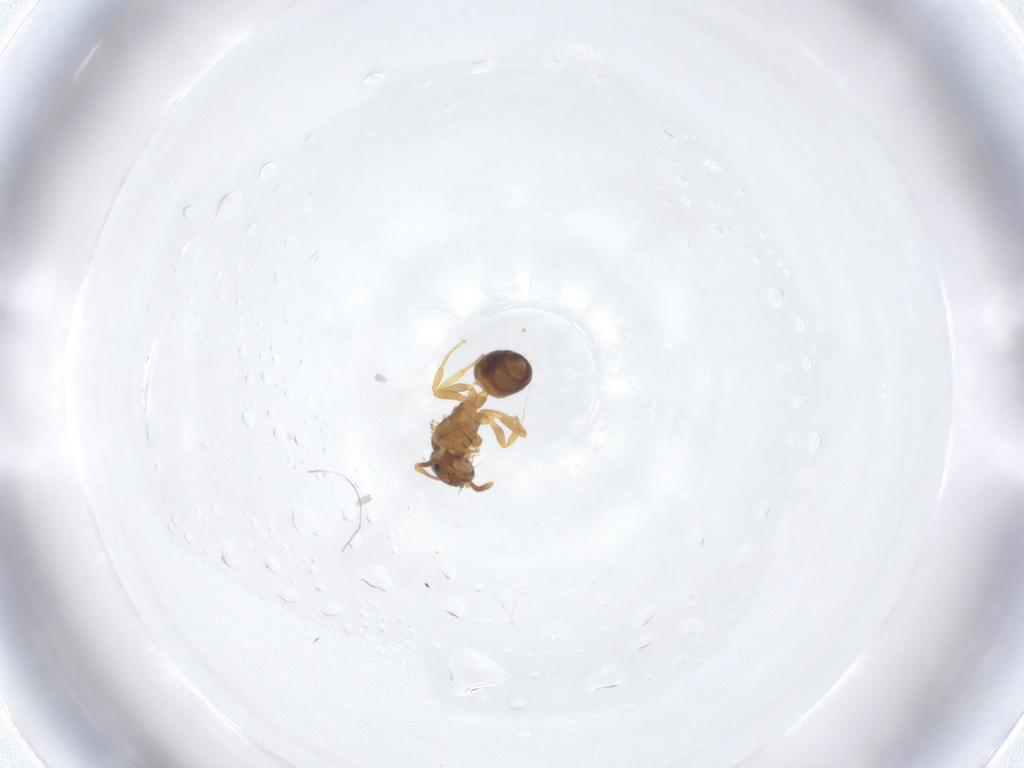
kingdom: Animalia
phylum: Arthropoda
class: Insecta
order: Hymenoptera
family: Formicidae
